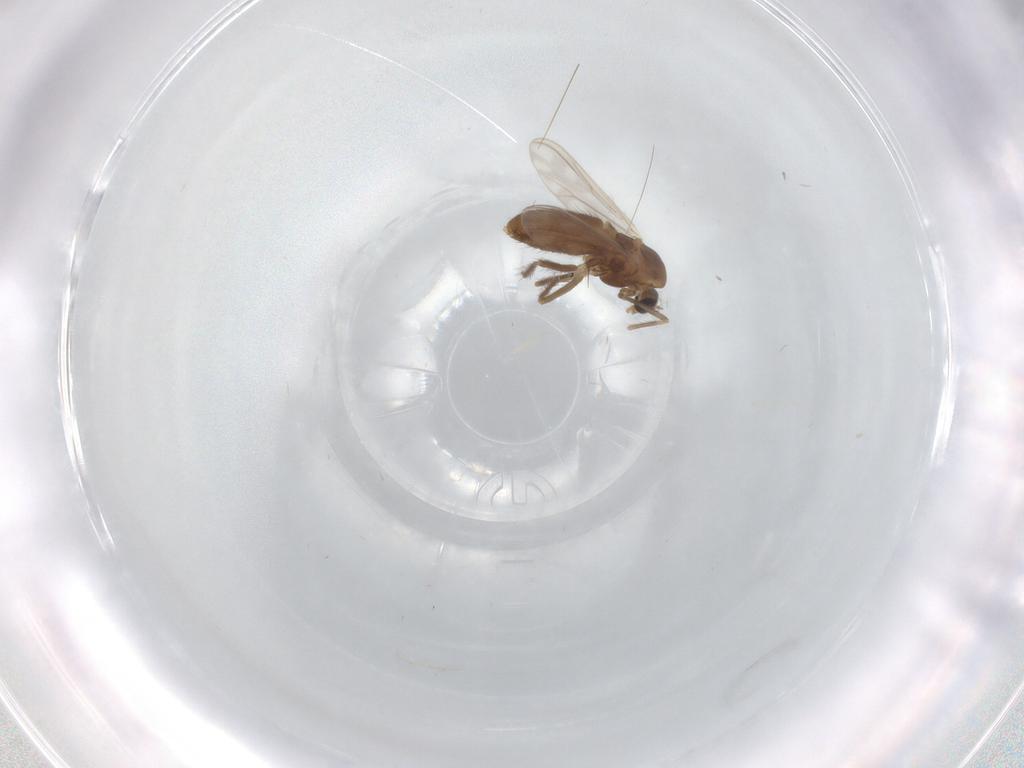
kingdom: Animalia
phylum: Arthropoda
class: Insecta
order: Diptera
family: Chironomidae
